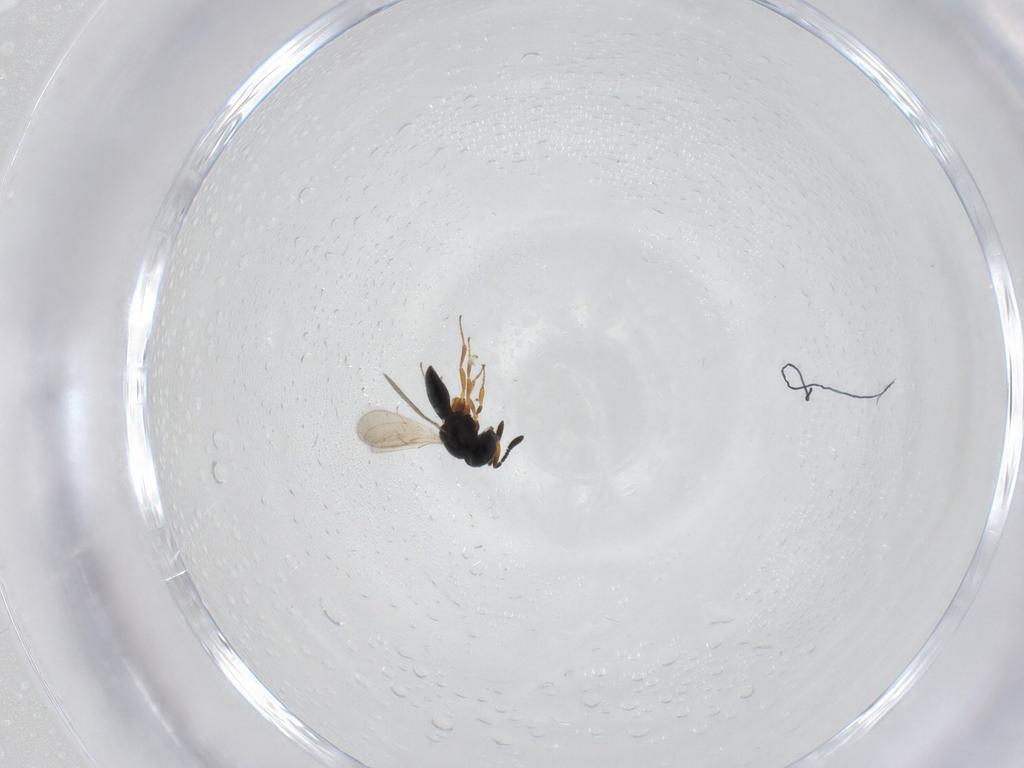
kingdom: Animalia
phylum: Arthropoda
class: Insecta
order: Hymenoptera
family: Scelionidae
